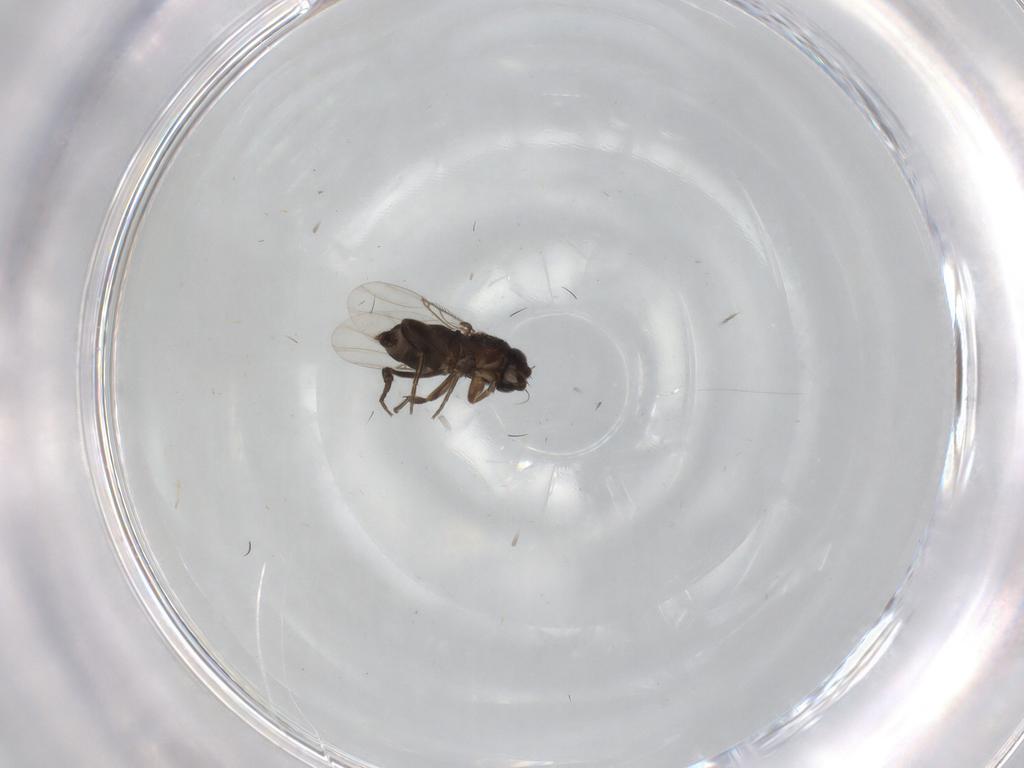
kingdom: Animalia
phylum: Arthropoda
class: Insecta
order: Diptera
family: Phoridae
